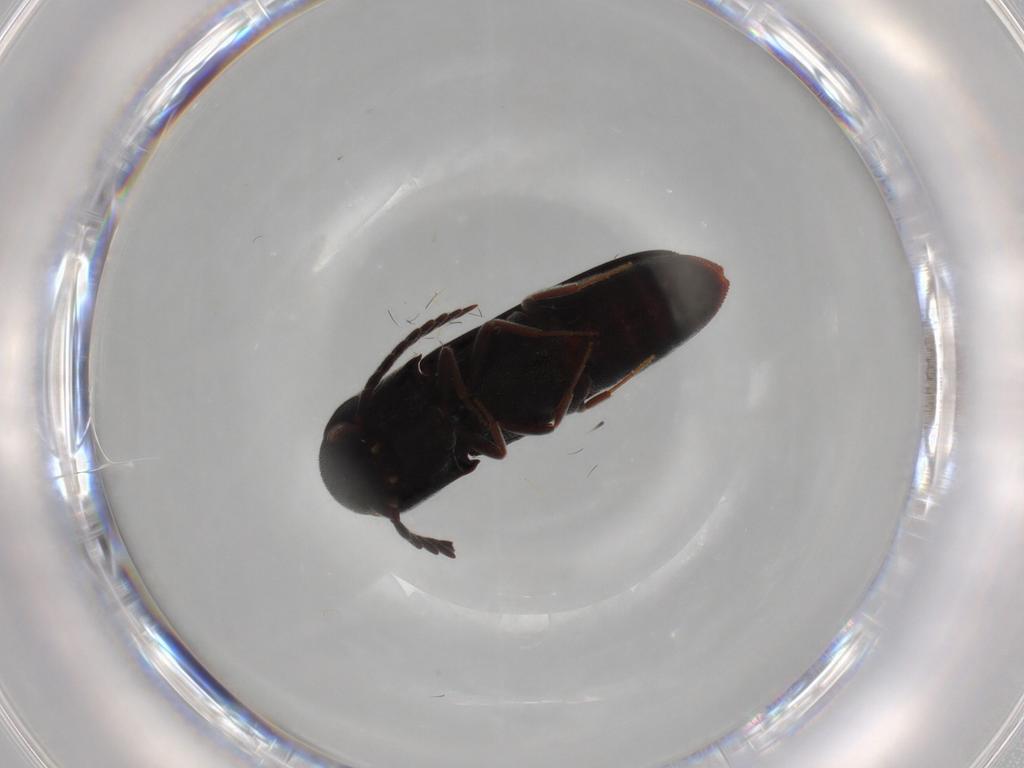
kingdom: Animalia
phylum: Arthropoda
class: Insecta
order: Coleoptera
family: Eucnemidae
